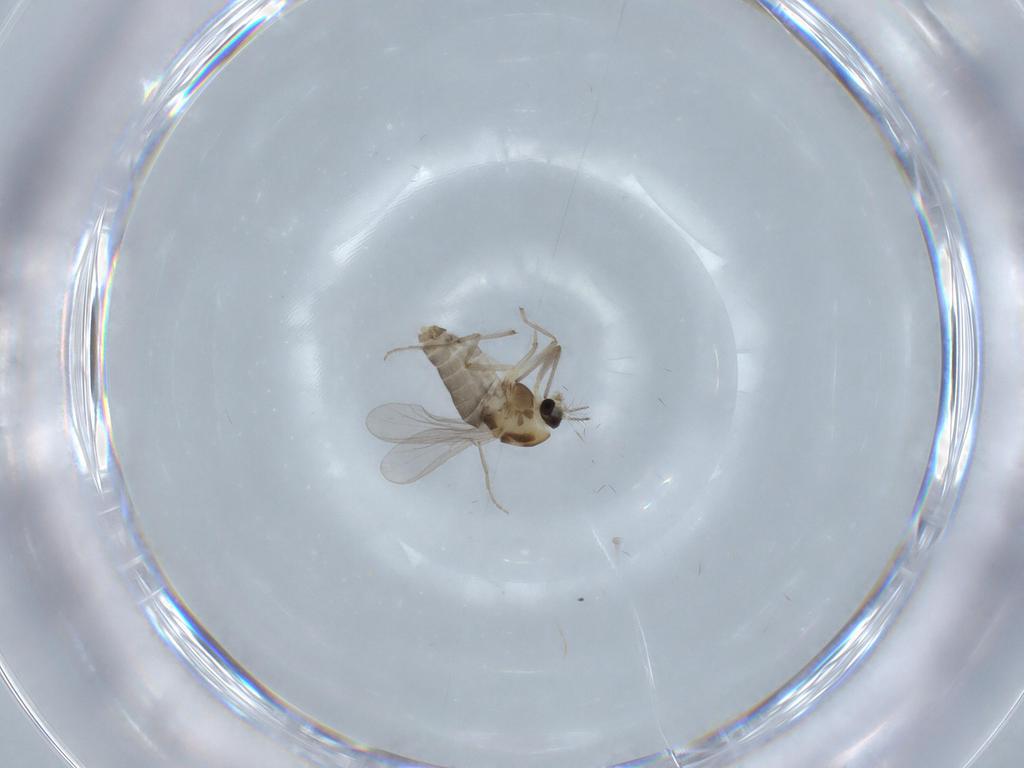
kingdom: Animalia
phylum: Arthropoda
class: Insecta
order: Diptera
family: Chironomidae
